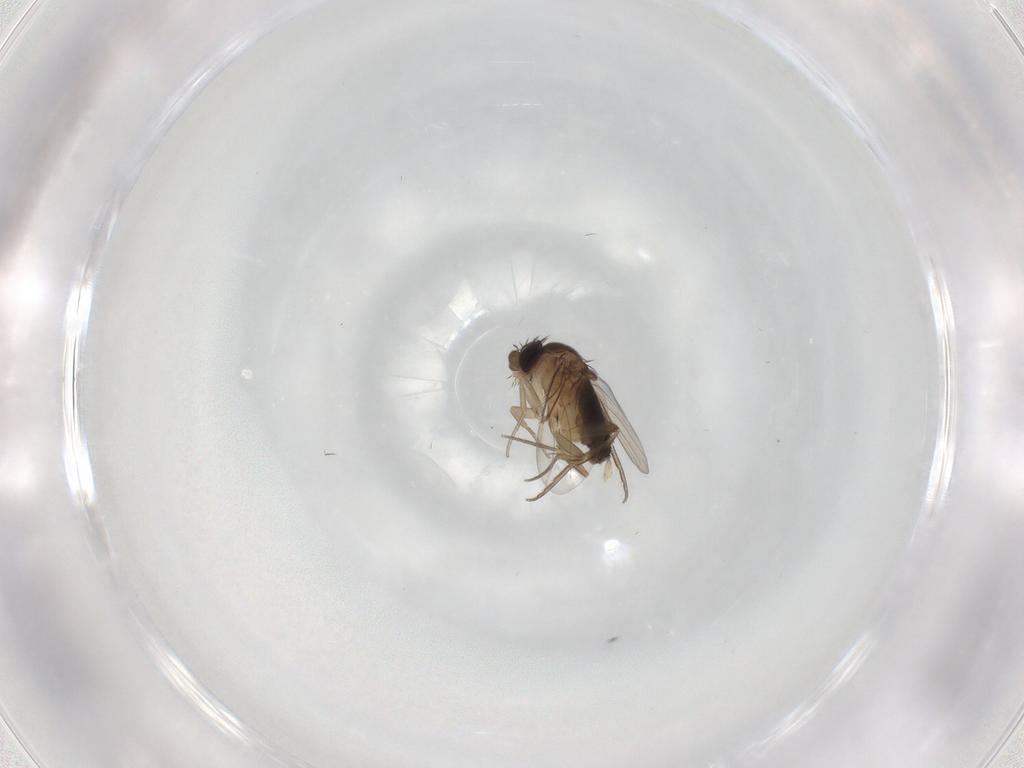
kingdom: Animalia
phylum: Arthropoda
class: Insecta
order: Diptera
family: Phoridae
